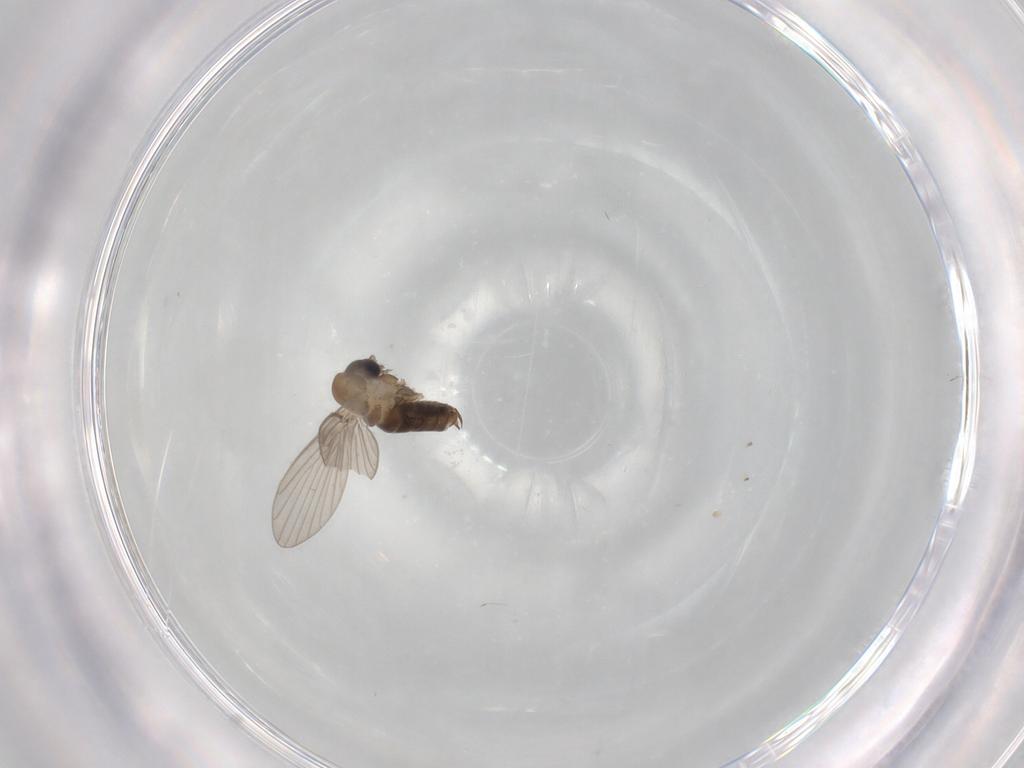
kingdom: Animalia
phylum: Arthropoda
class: Insecta
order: Diptera
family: Psychodidae
